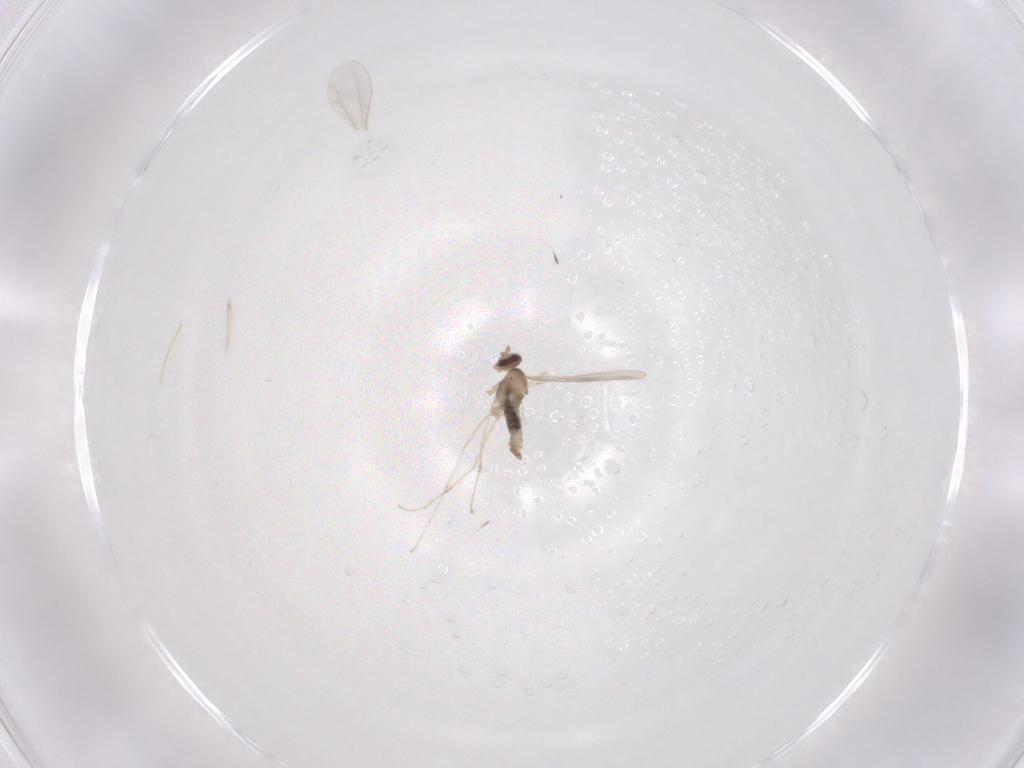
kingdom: Animalia
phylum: Arthropoda
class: Insecta
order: Diptera
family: Cecidomyiidae
